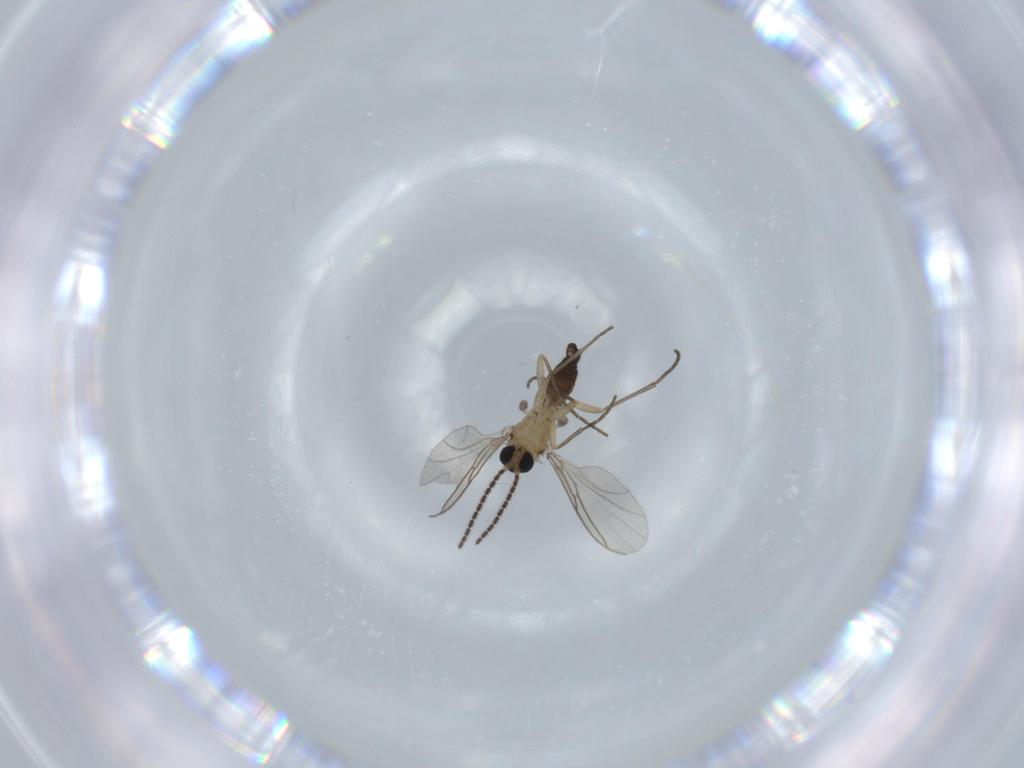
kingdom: Animalia
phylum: Arthropoda
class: Insecta
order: Diptera
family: Sciaridae
